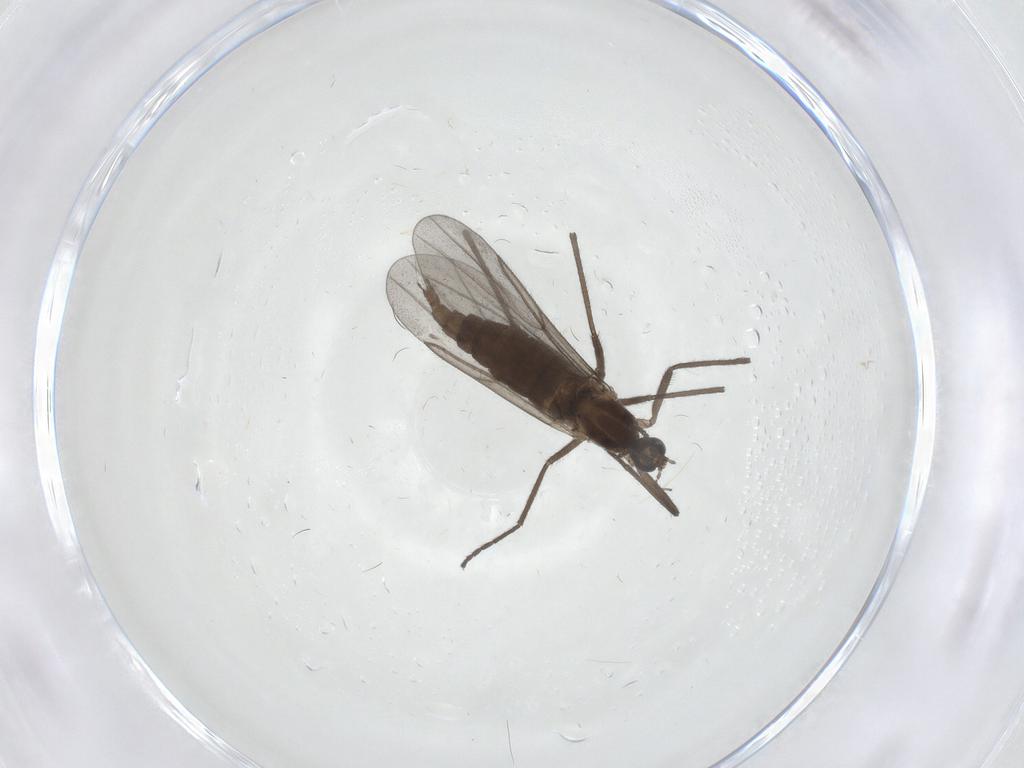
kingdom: Animalia
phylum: Arthropoda
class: Insecta
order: Diptera
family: Cecidomyiidae
